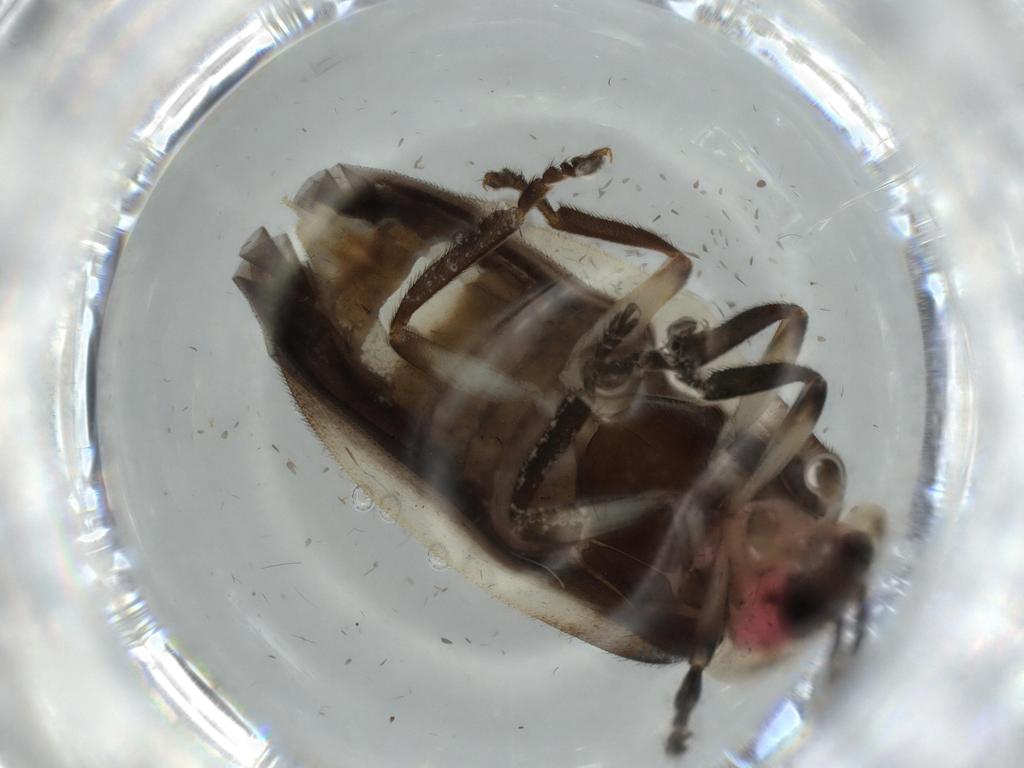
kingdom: Animalia
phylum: Arthropoda
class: Insecta
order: Coleoptera
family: Lampyridae
